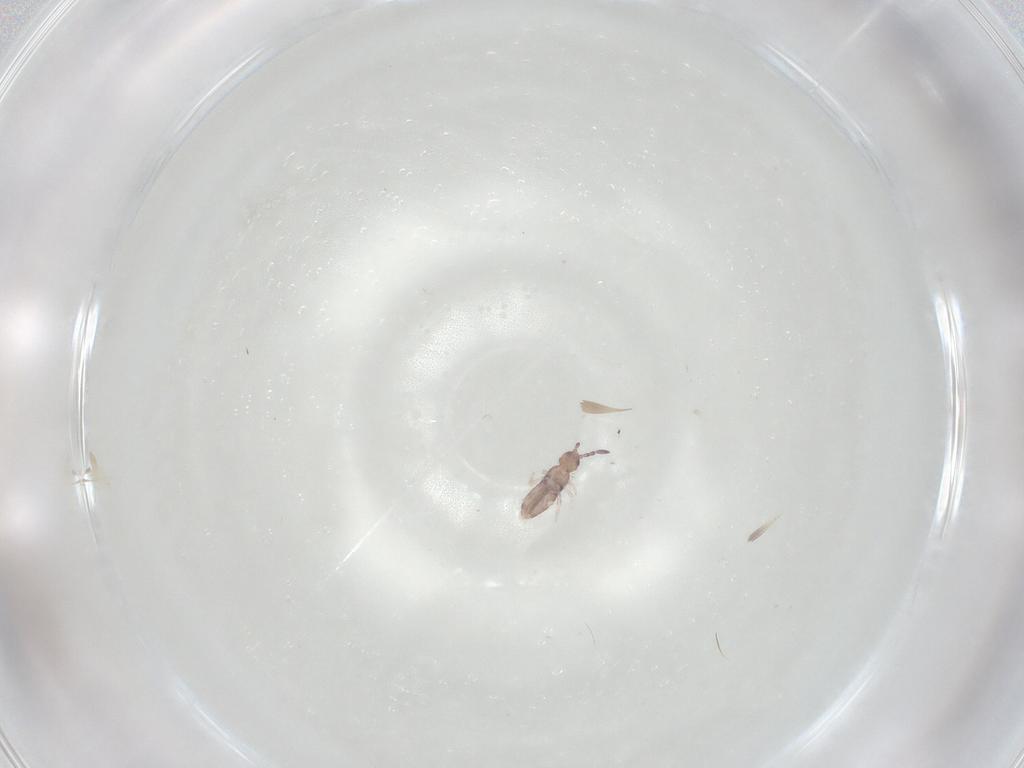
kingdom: Animalia
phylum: Arthropoda
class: Collembola
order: Entomobryomorpha
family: Entomobryidae
